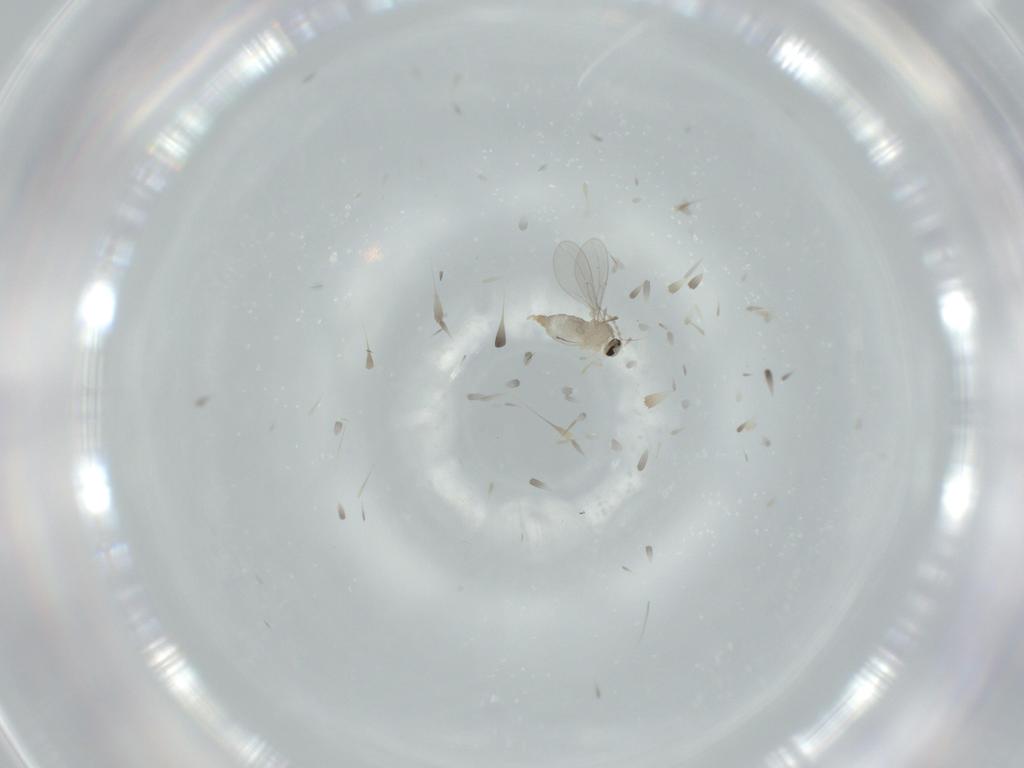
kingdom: Animalia
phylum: Arthropoda
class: Insecta
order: Diptera
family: Cecidomyiidae
